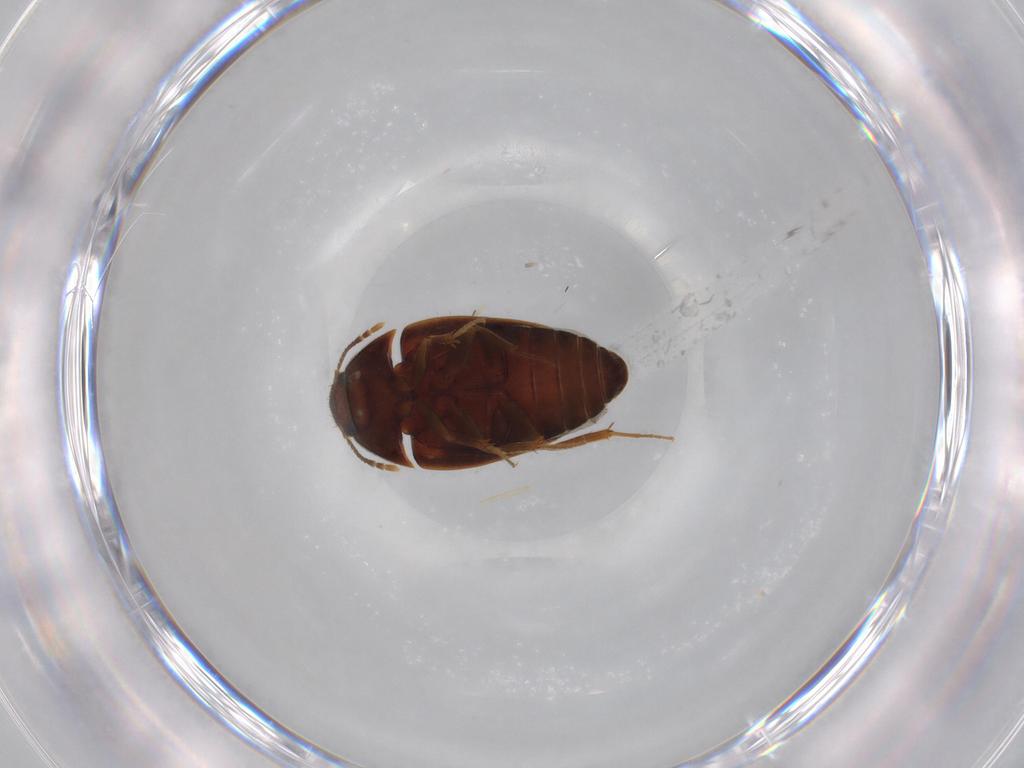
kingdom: Animalia
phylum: Arthropoda
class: Insecta
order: Coleoptera
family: Mycetophagidae
